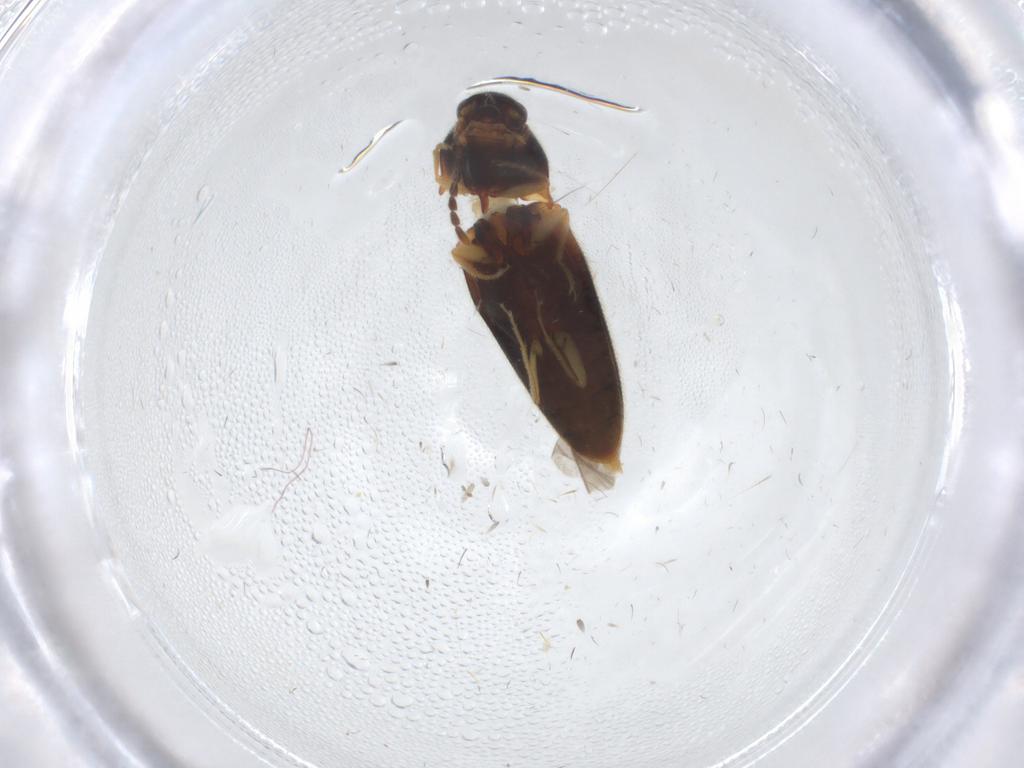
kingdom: Animalia
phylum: Arthropoda
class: Insecta
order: Coleoptera
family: Elateridae
